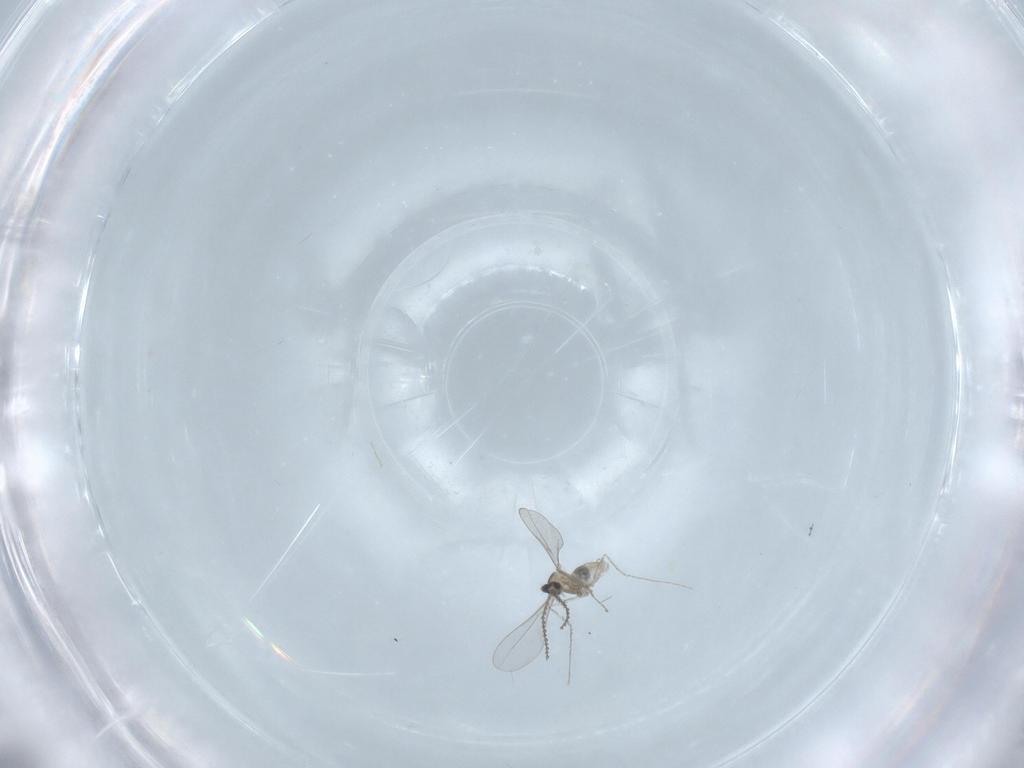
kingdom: Animalia
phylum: Arthropoda
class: Insecta
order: Diptera
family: Cecidomyiidae
